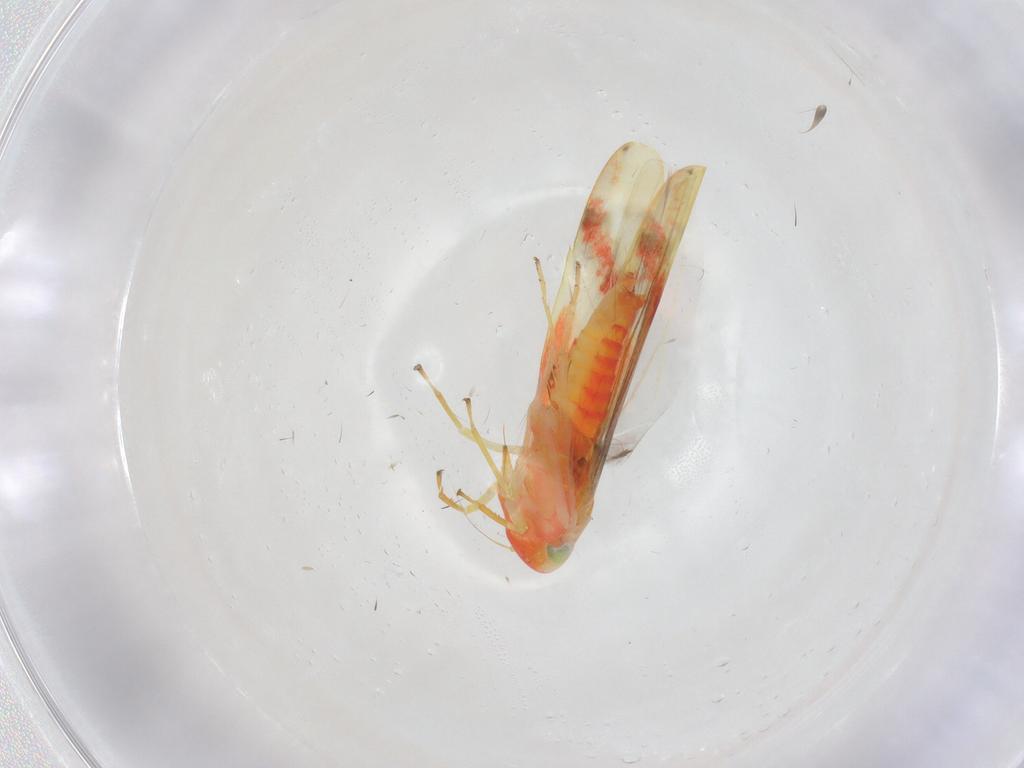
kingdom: Animalia
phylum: Arthropoda
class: Insecta
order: Hemiptera
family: Cicadellidae
